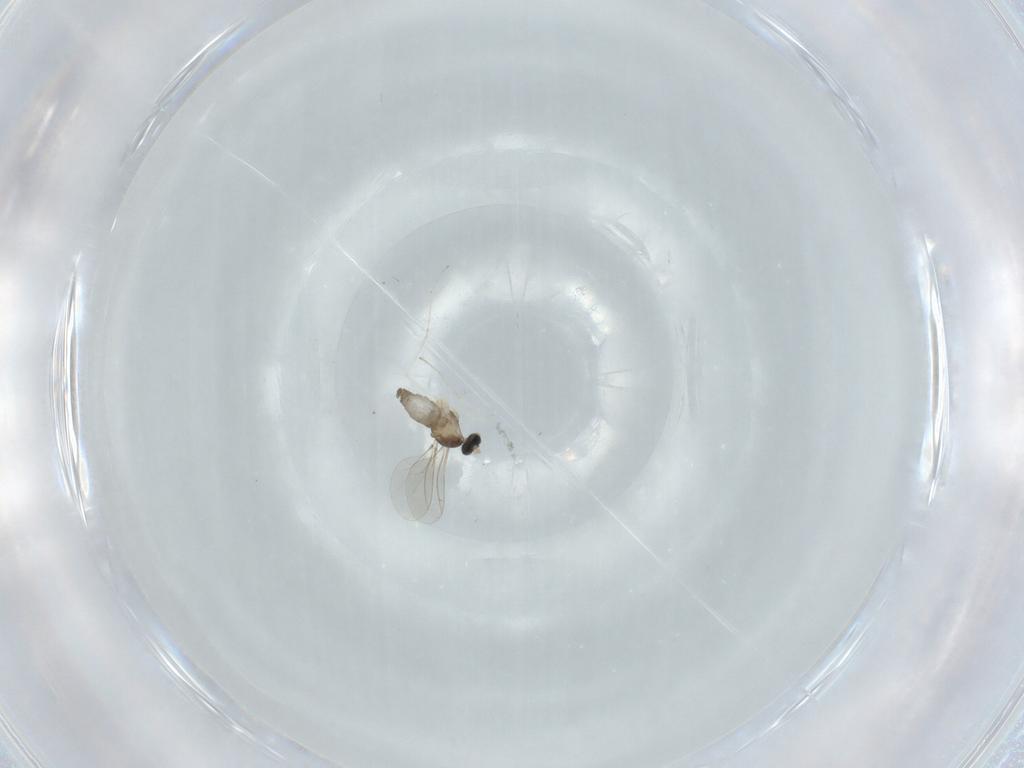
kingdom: Animalia
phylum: Arthropoda
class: Insecta
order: Diptera
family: Cecidomyiidae
